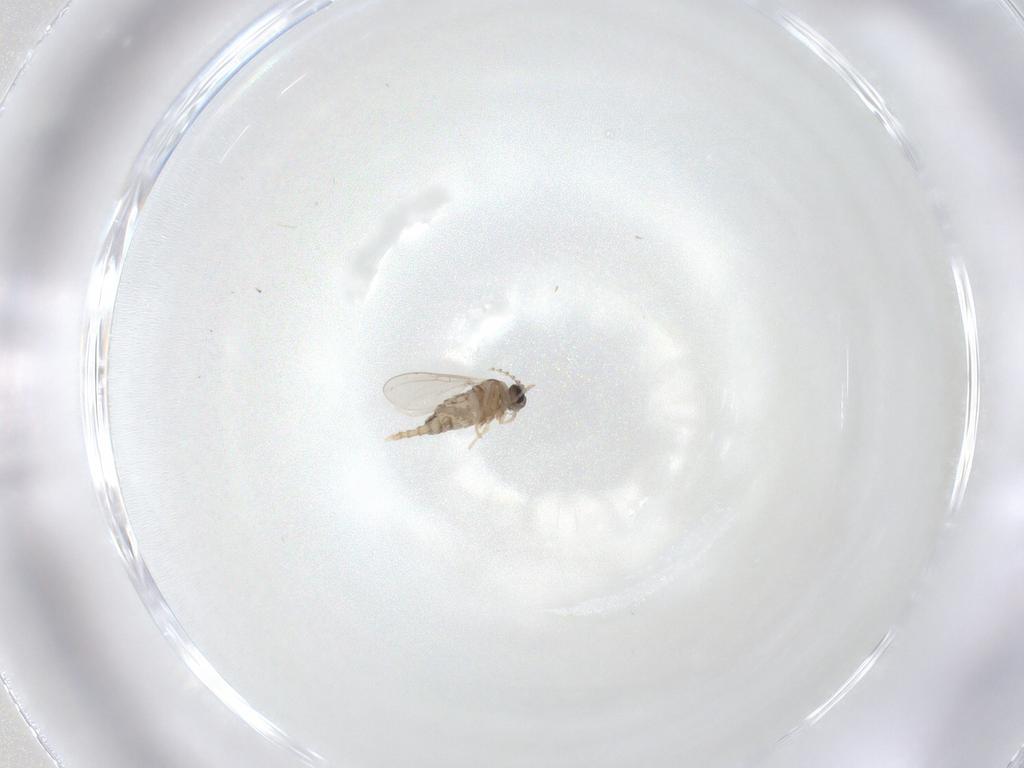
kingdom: Animalia
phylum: Arthropoda
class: Insecta
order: Diptera
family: Cecidomyiidae
